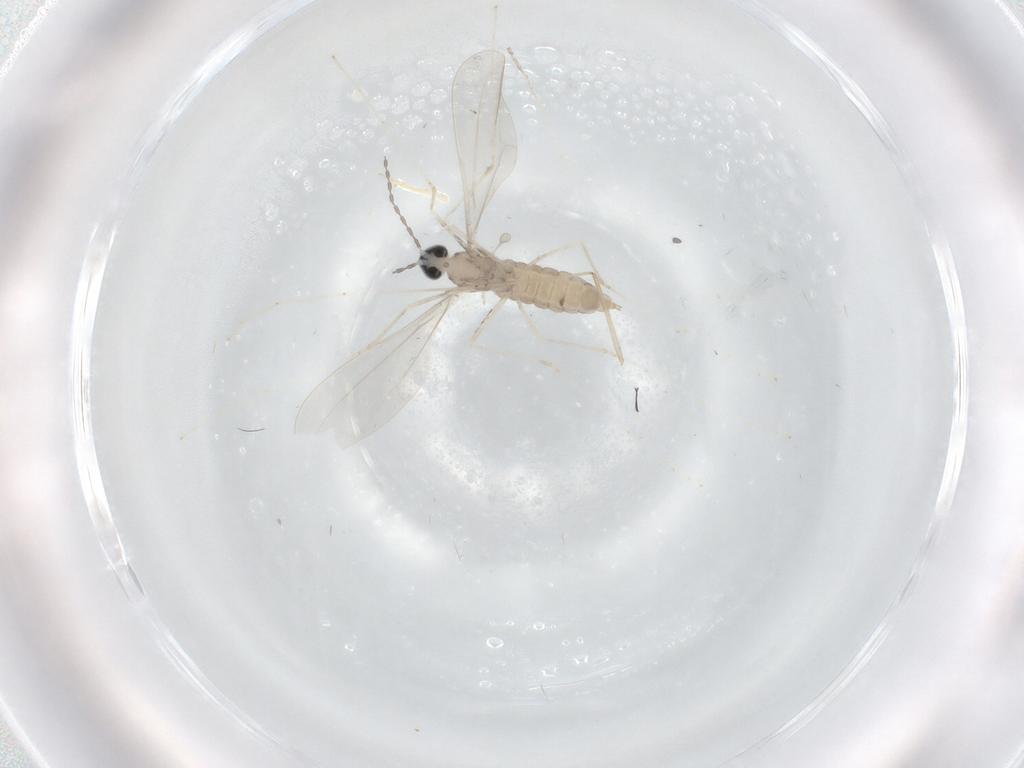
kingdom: Animalia
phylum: Arthropoda
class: Insecta
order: Diptera
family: Cecidomyiidae
